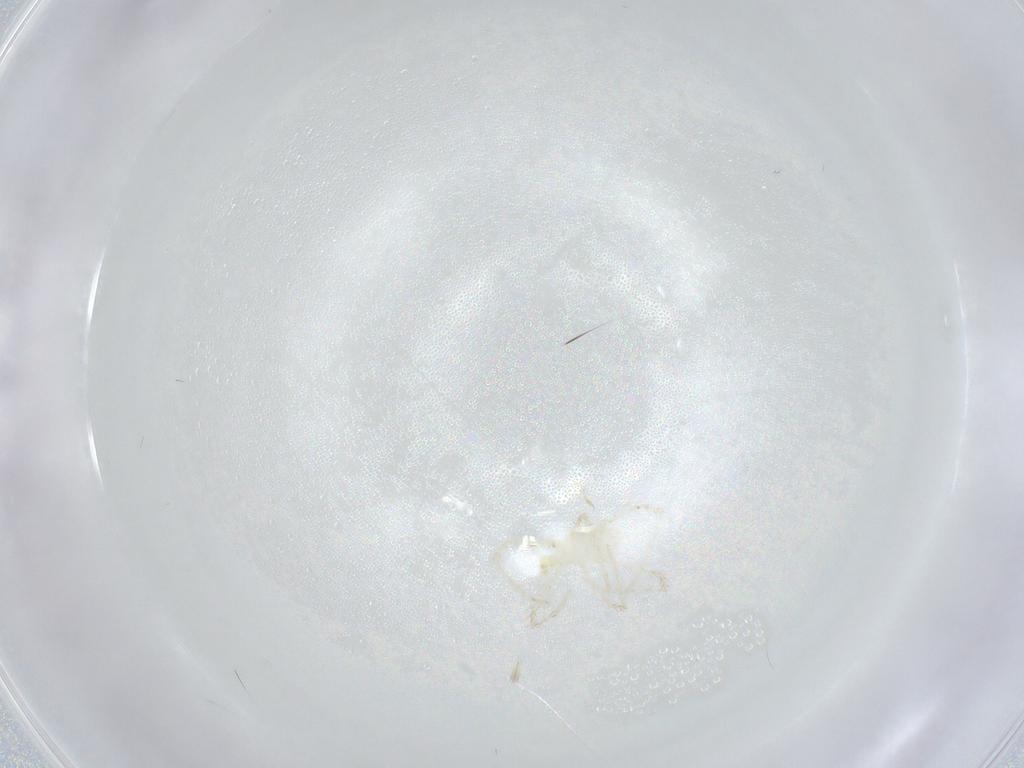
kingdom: Animalia
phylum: Arthropoda
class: Arachnida
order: Trombidiformes
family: Erythraeidae
